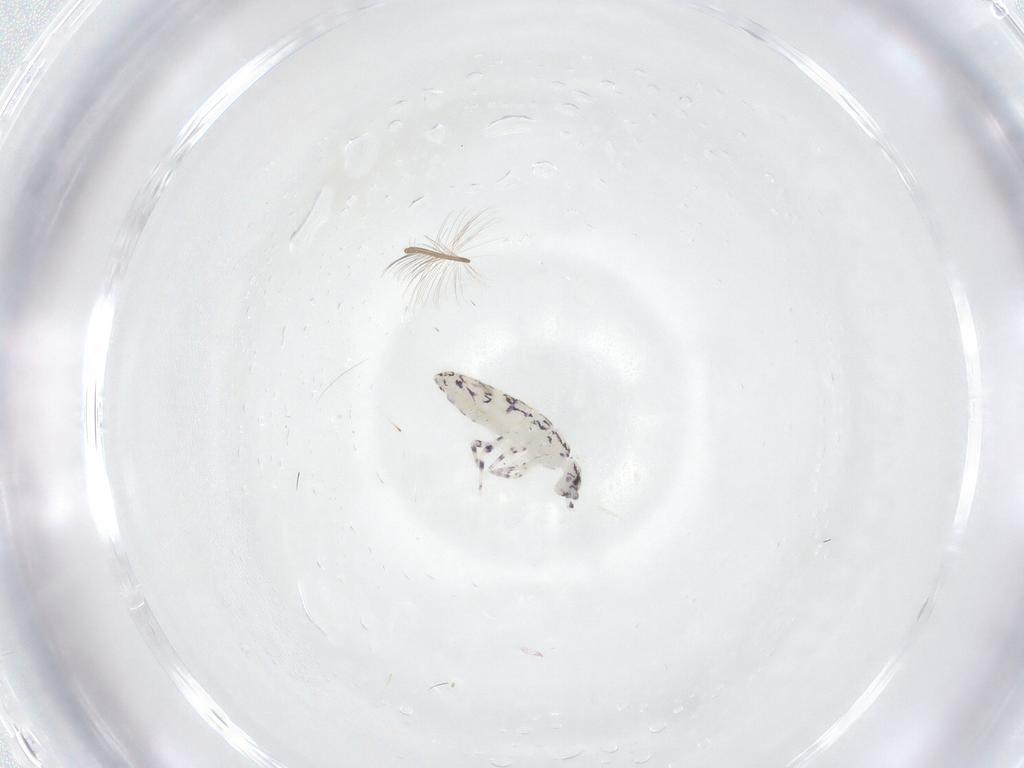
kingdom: Animalia
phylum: Arthropoda
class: Collembola
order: Entomobryomorpha
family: Entomobryidae
